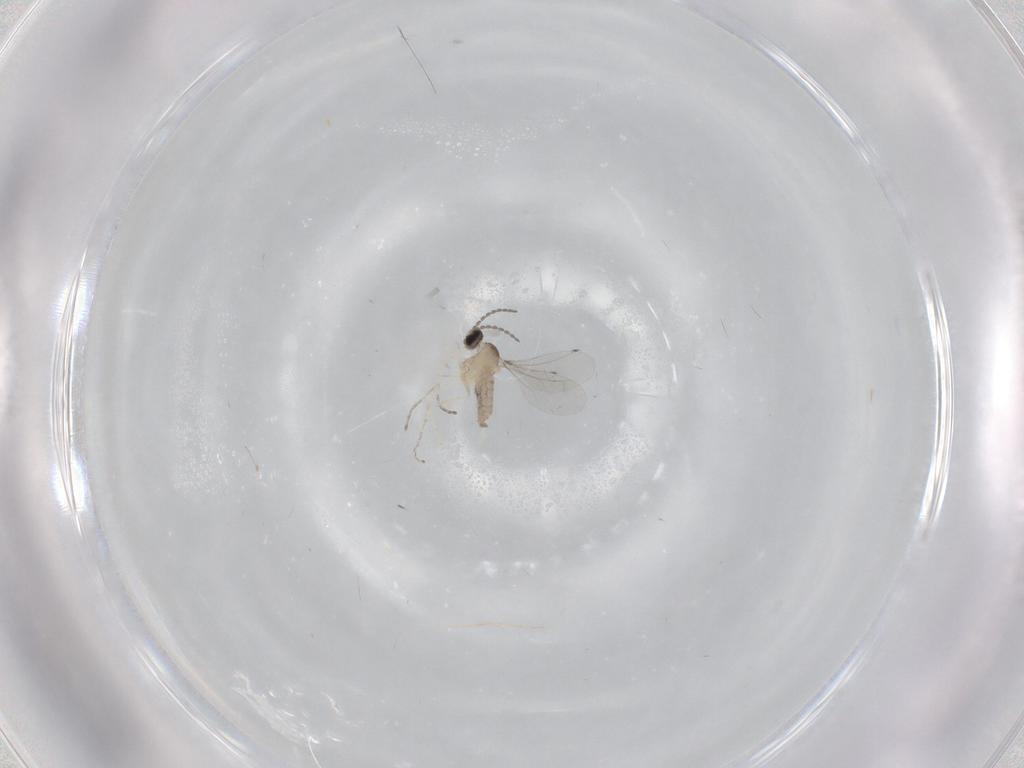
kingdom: Animalia
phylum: Arthropoda
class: Insecta
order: Diptera
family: Cecidomyiidae
